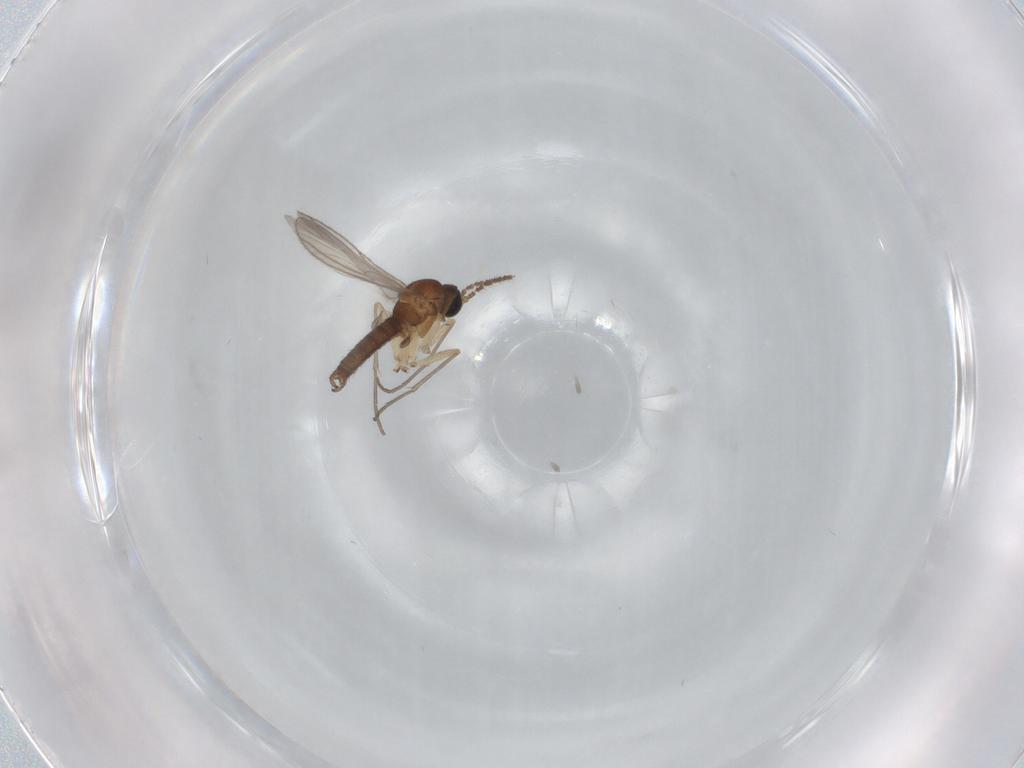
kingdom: Animalia
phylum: Arthropoda
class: Insecta
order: Diptera
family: Sciaridae
